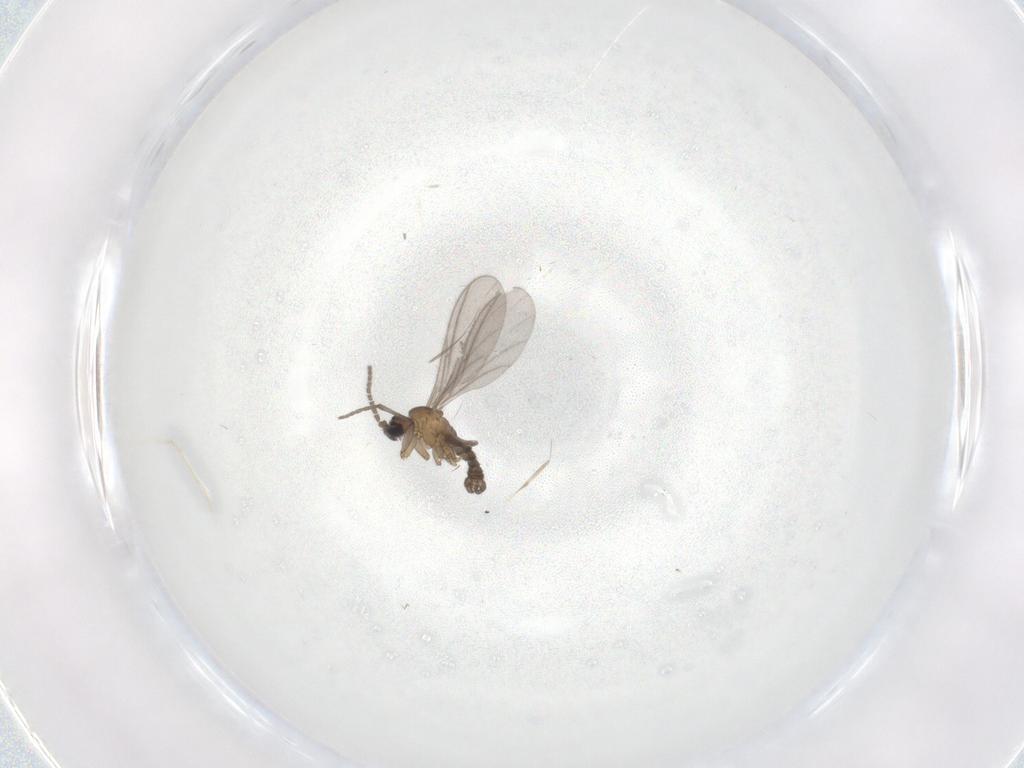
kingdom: Animalia
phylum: Arthropoda
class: Insecta
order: Diptera
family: Sciaridae
